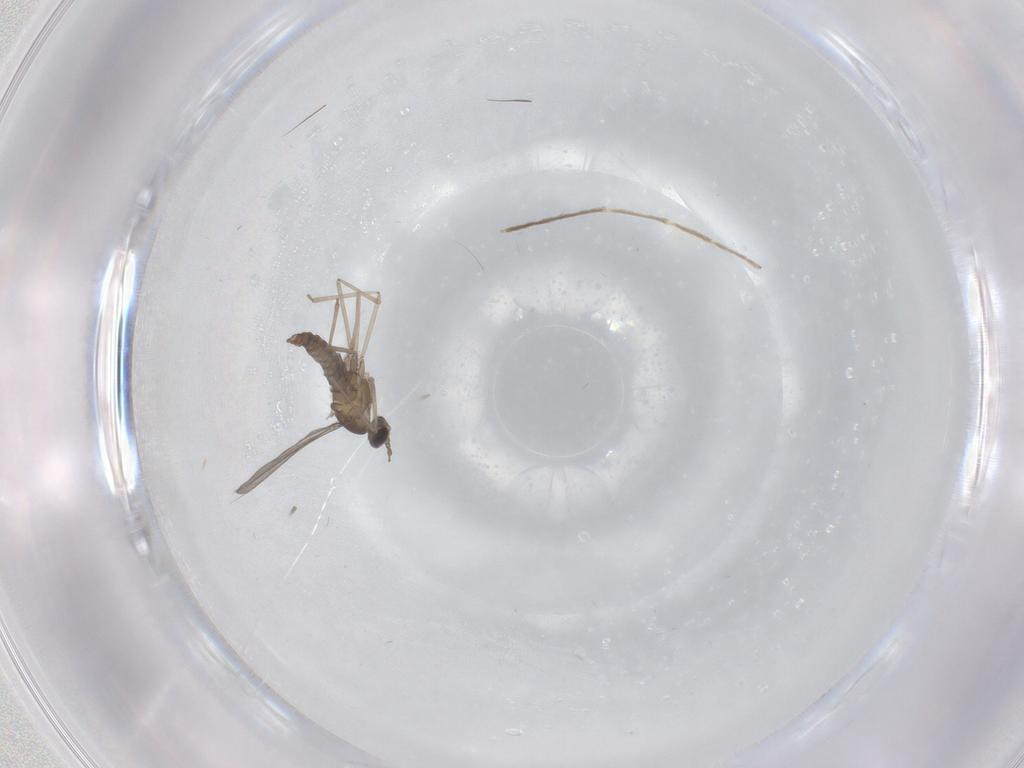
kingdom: Animalia
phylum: Arthropoda
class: Insecta
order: Diptera
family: Chironomidae
